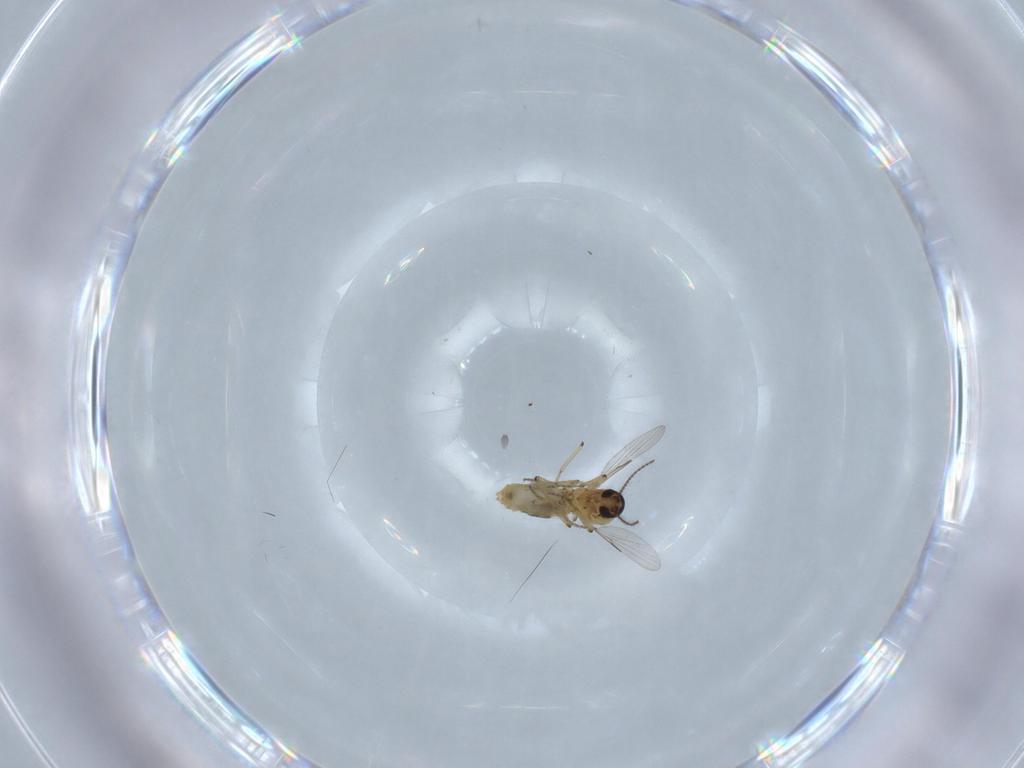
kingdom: Animalia
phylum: Arthropoda
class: Insecta
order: Diptera
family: Ceratopogonidae
